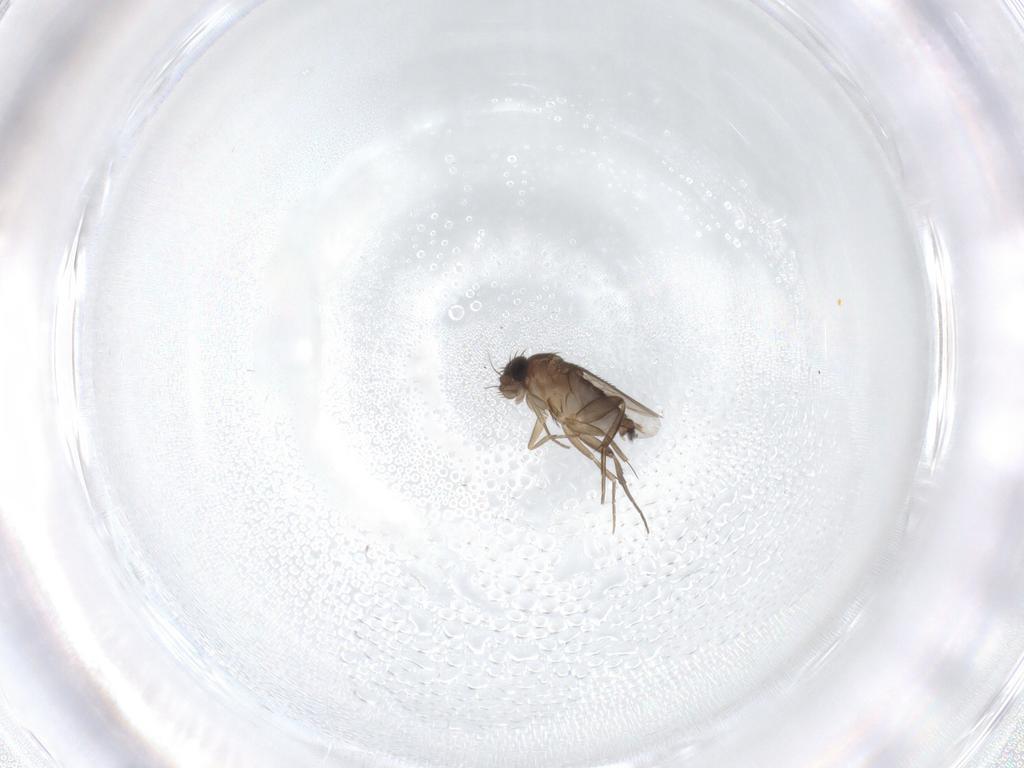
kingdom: Animalia
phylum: Arthropoda
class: Insecta
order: Diptera
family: Phoridae
